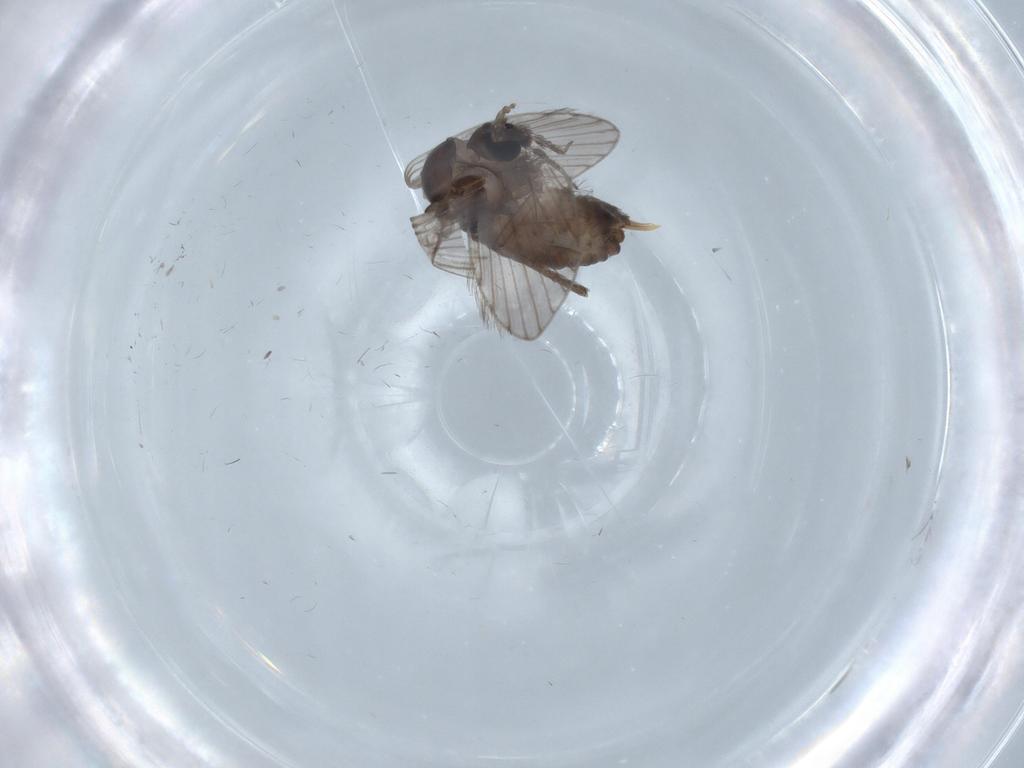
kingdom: Animalia
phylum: Arthropoda
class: Insecta
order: Diptera
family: Psychodidae
